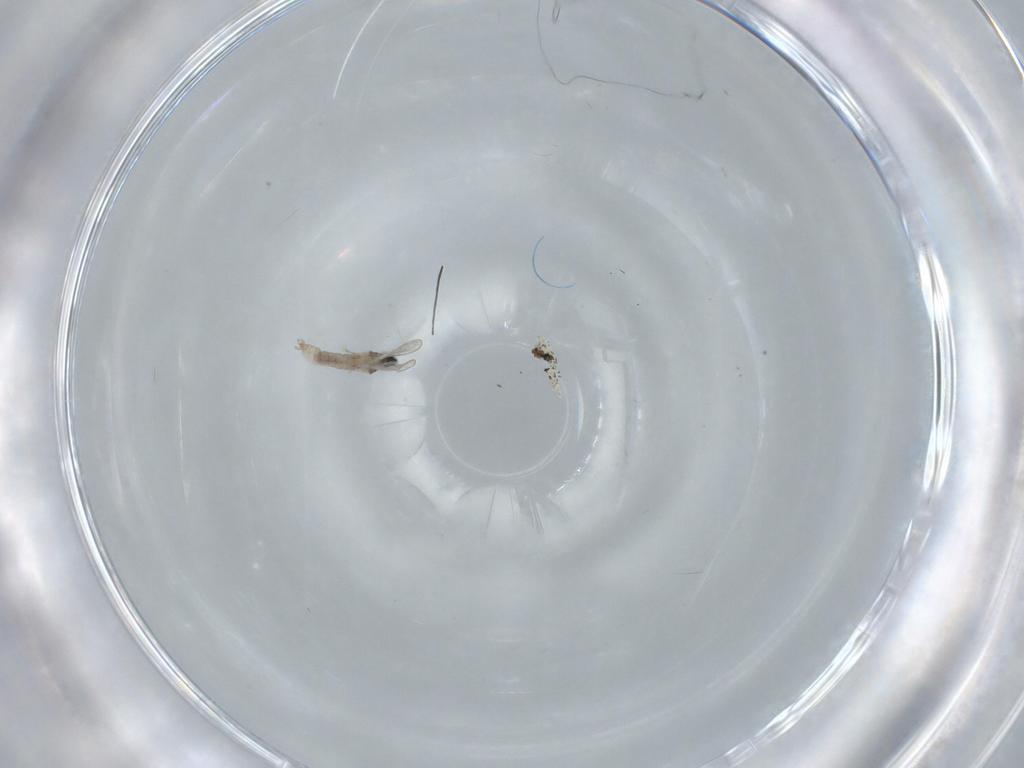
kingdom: Animalia
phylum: Arthropoda
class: Insecta
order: Diptera
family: Cecidomyiidae
